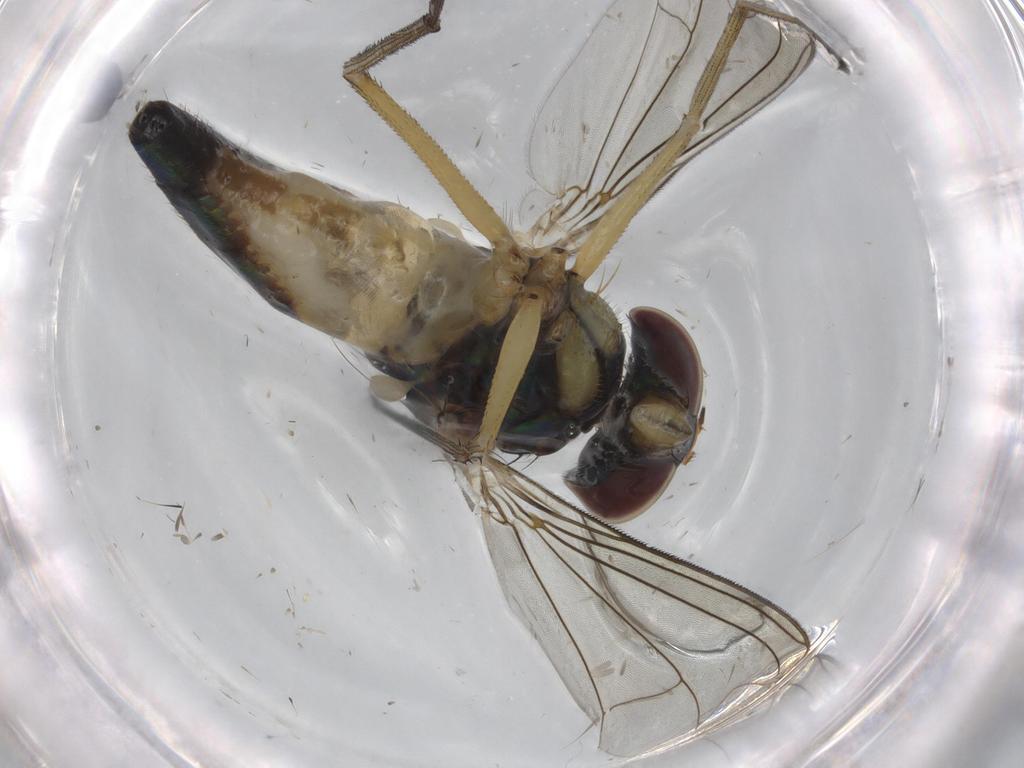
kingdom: Animalia
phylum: Arthropoda
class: Insecta
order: Diptera
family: Dolichopodidae
